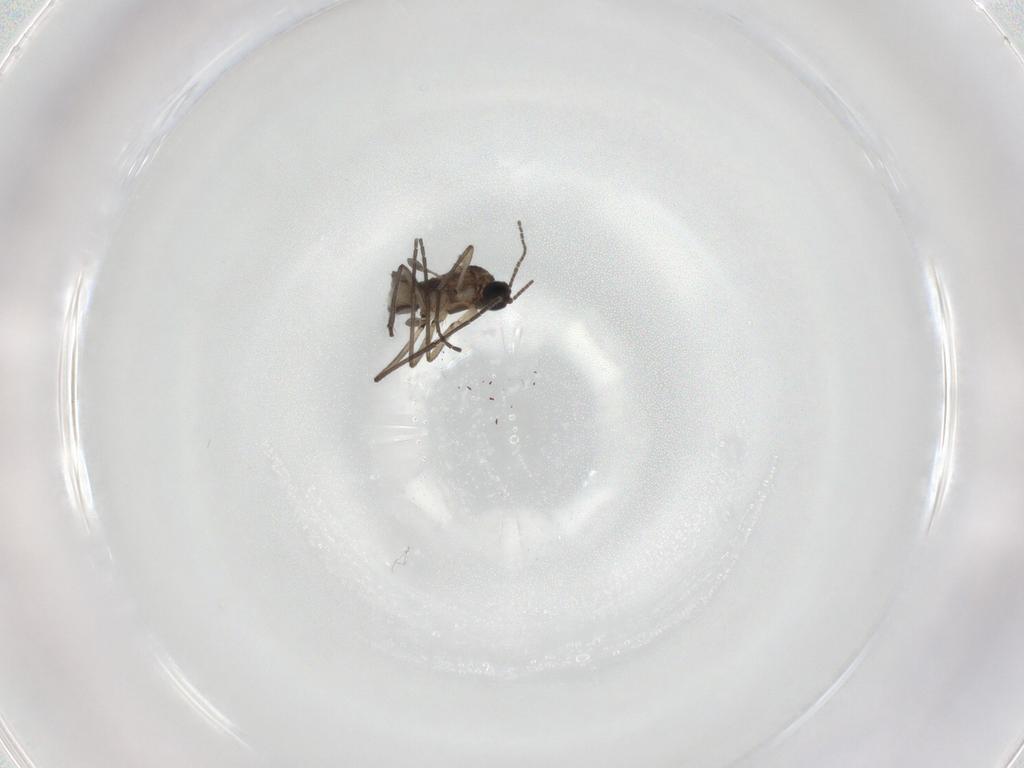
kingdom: Animalia
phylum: Arthropoda
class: Insecta
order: Diptera
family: Sciaridae
